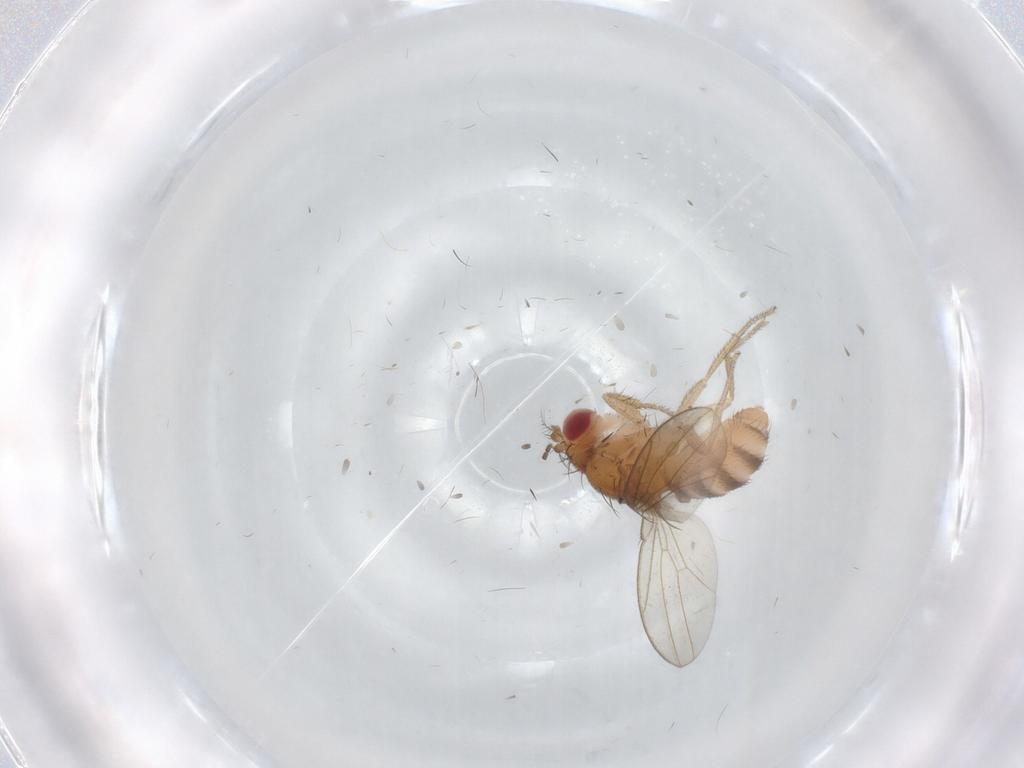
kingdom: Animalia
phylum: Arthropoda
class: Insecta
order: Diptera
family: Drosophilidae
